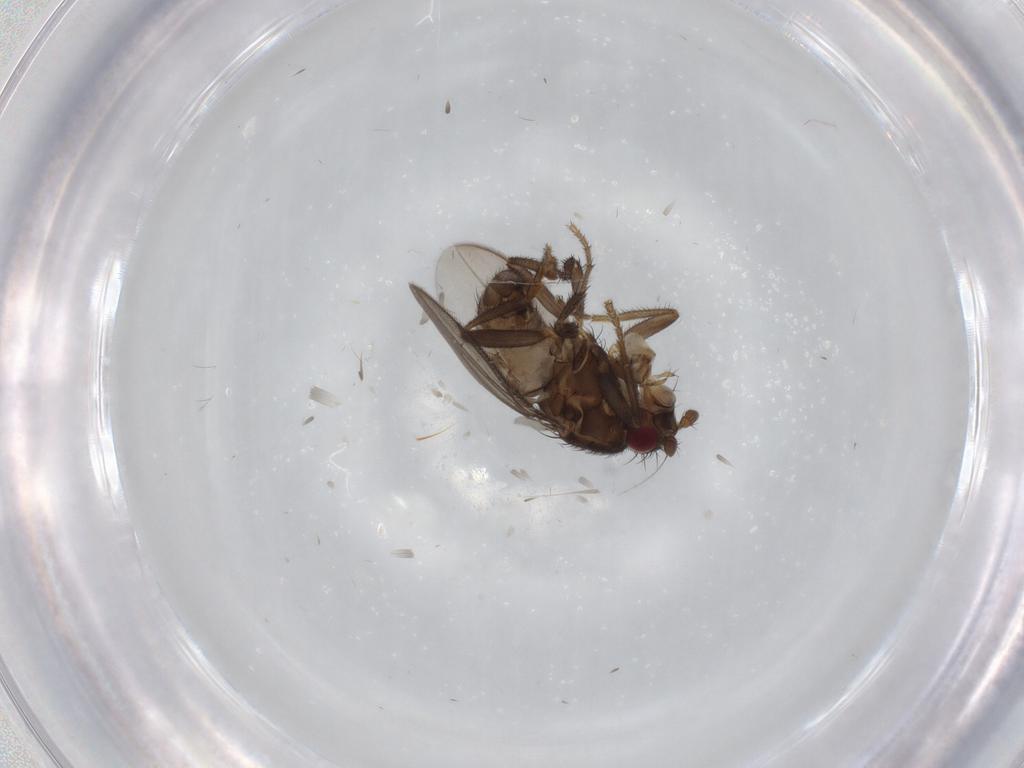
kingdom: Animalia
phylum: Arthropoda
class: Insecta
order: Diptera
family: Sphaeroceridae
